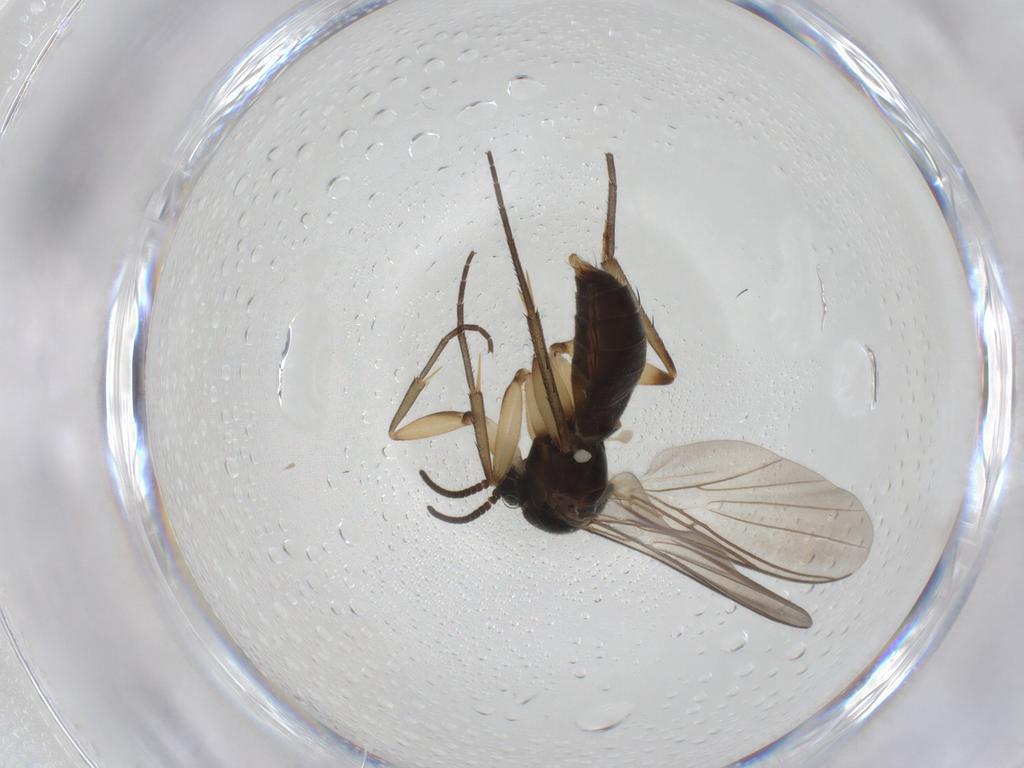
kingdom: Animalia
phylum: Arthropoda
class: Insecta
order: Diptera
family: Mycetophilidae
